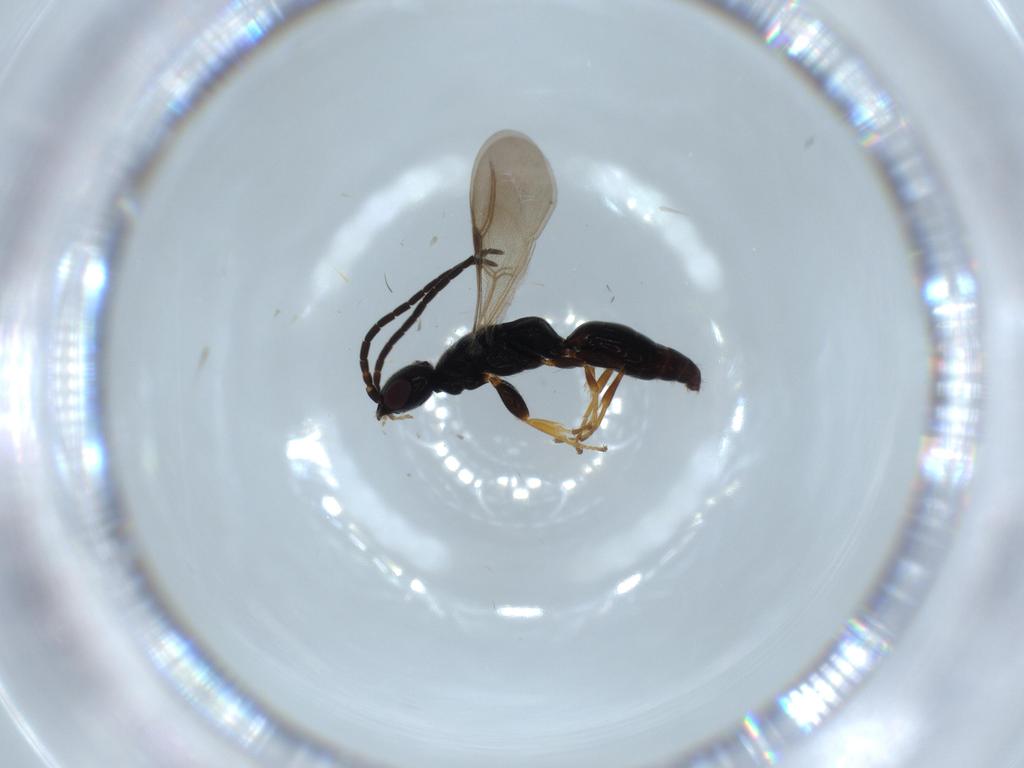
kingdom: Animalia
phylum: Arthropoda
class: Insecta
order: Hymenoptera
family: Bethylidae
